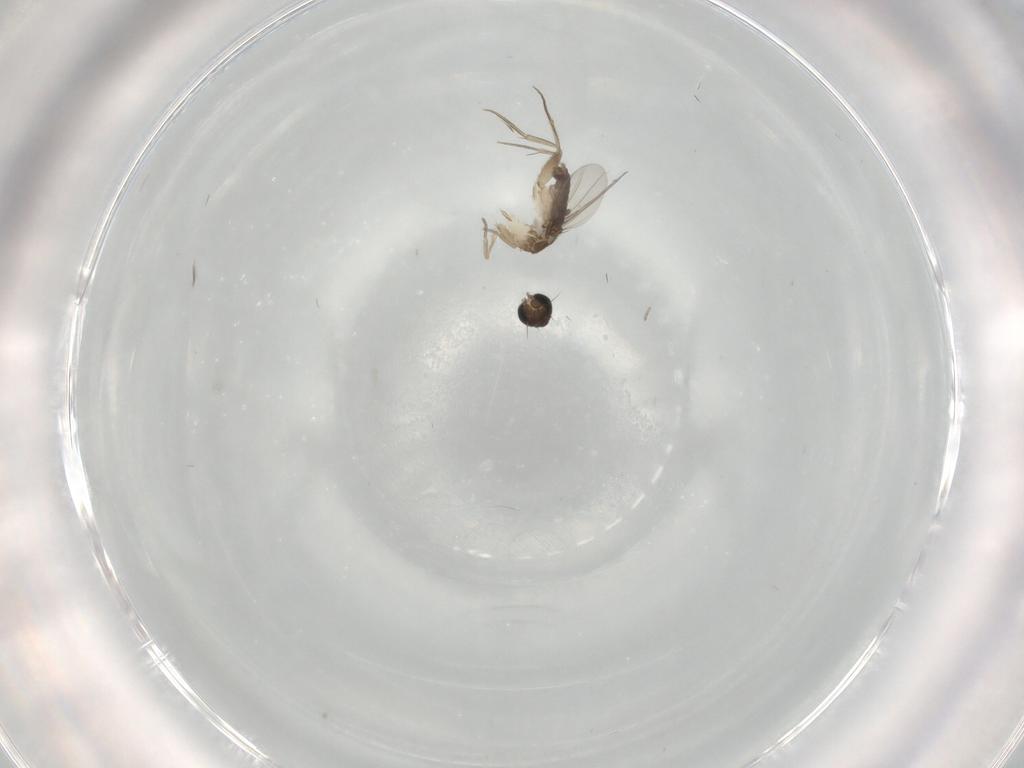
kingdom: Animalia
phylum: Arthropoda
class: Insecta
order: Diptera
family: Phoridae
